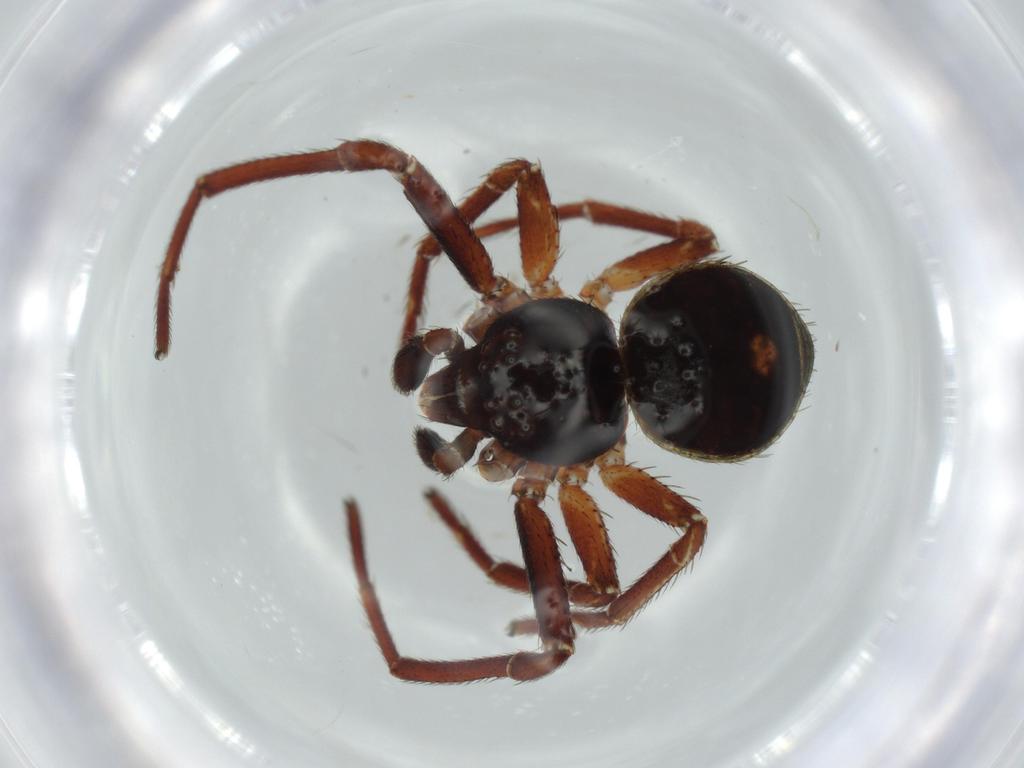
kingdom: Animalia
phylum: Arthropoda
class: Arachnida
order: Araneae
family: Thomisidae
